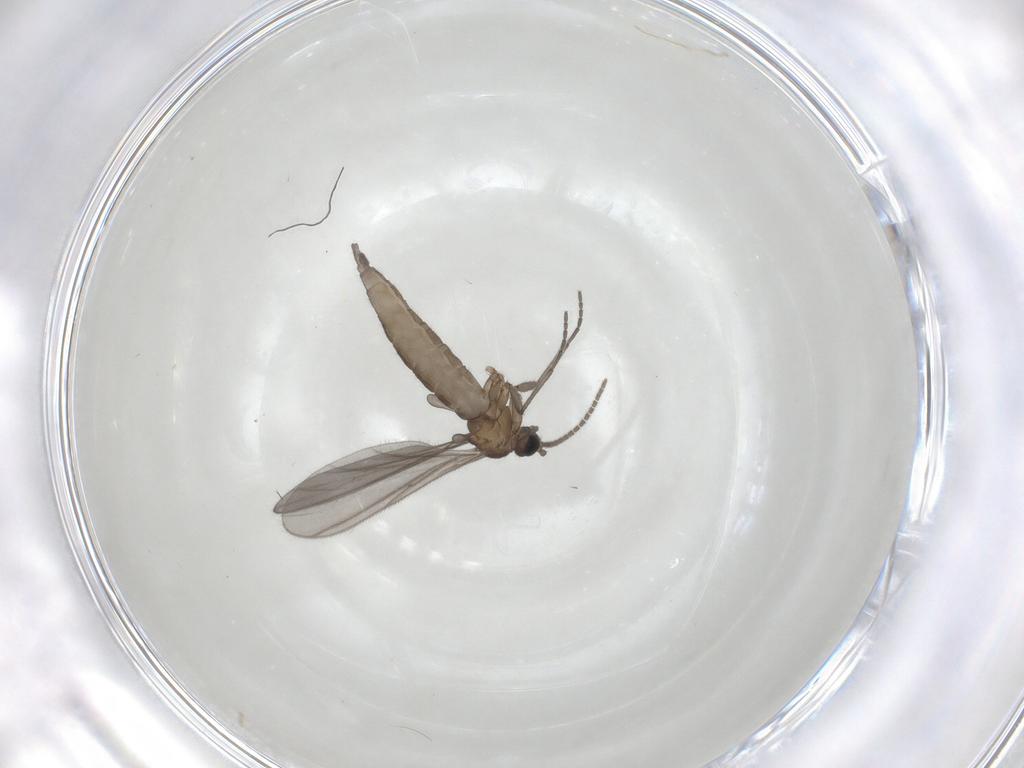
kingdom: Animalia
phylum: Arthropoda
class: Insecta
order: Diptera
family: Sciaridae
